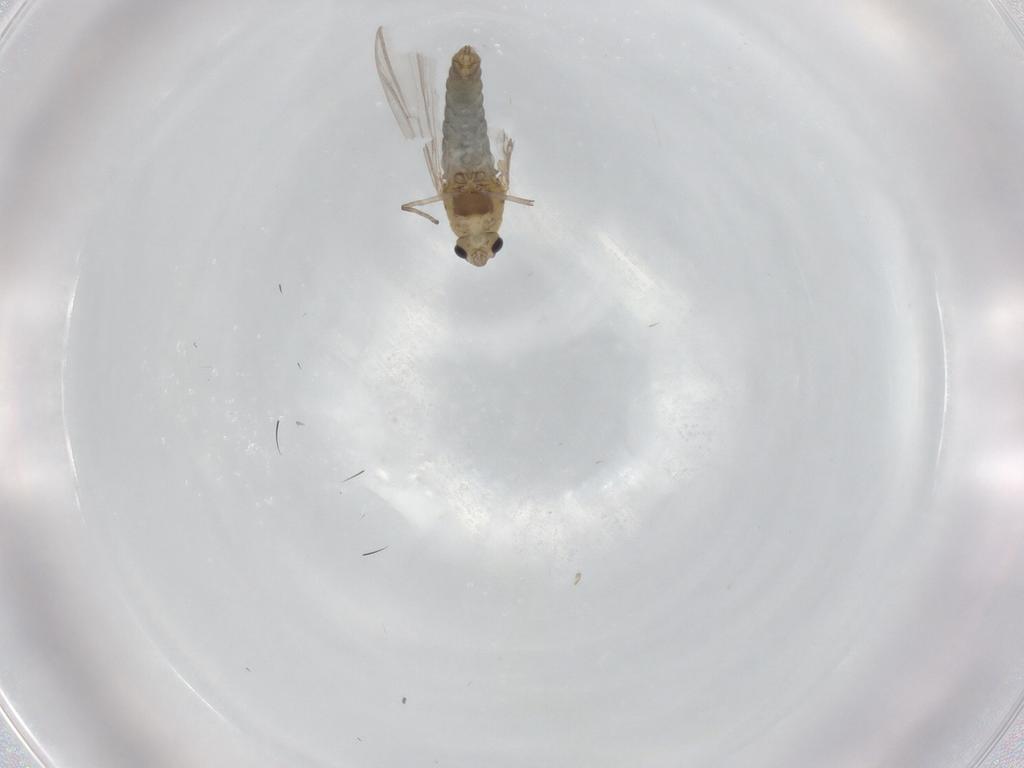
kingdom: Animalia
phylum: Arthropoda
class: Insecta
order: Diptera
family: Chironomidae
